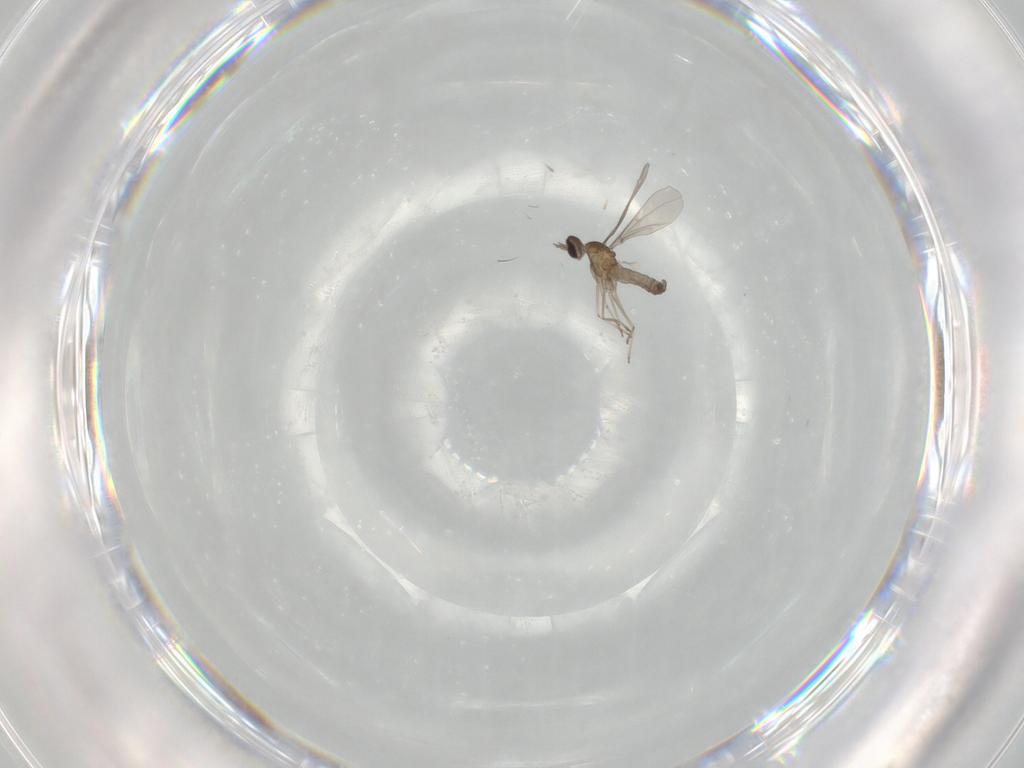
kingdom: Animalia
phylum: Arthropoda
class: Insecta
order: Diptera
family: Cecidomyiidae
